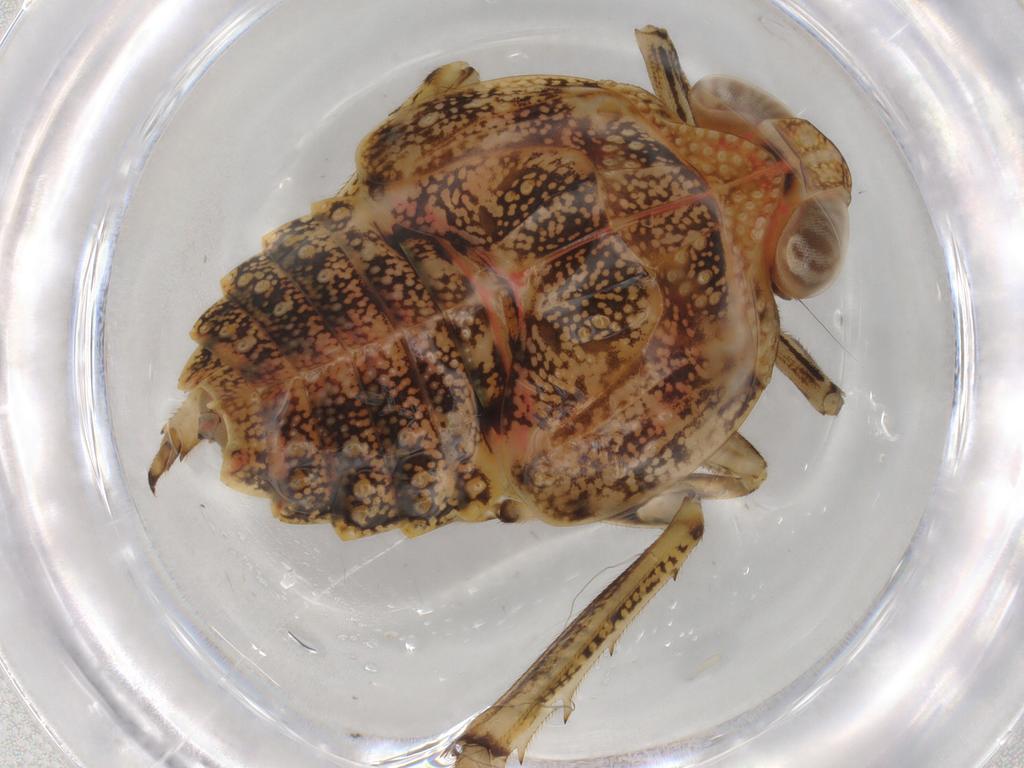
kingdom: Animalia
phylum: Arthropoda
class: Insecta
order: Hemiptera
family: Issidae
